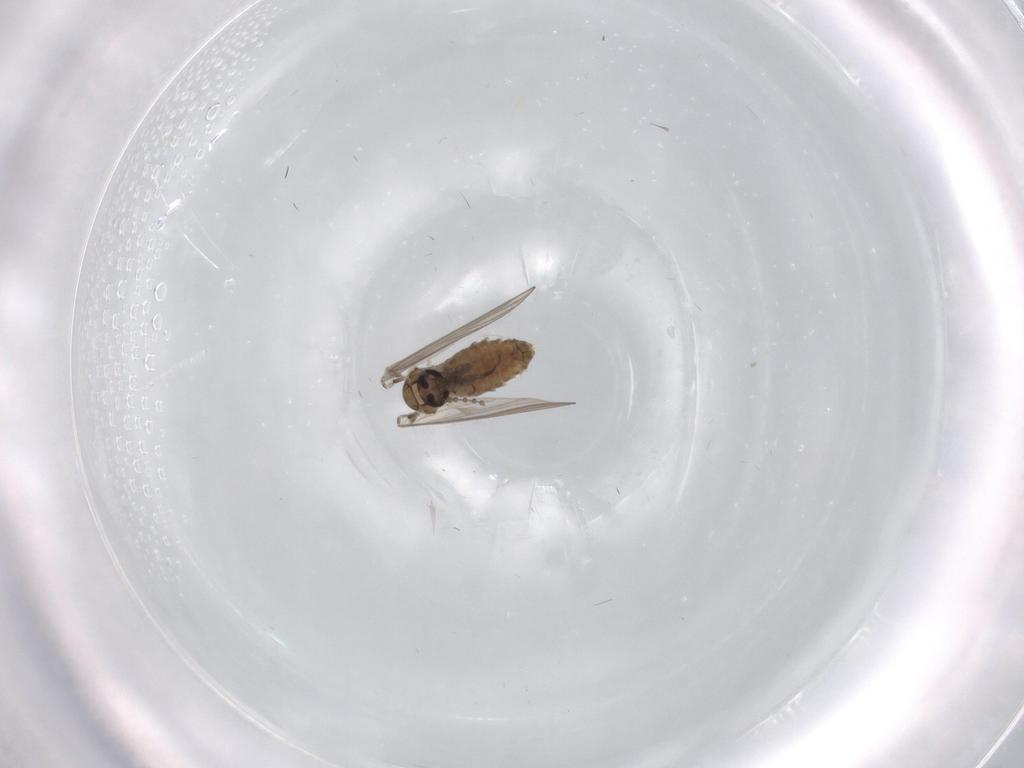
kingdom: Animalia
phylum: Arthropoda
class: Insecta
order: Diptera
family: Psychodidae
